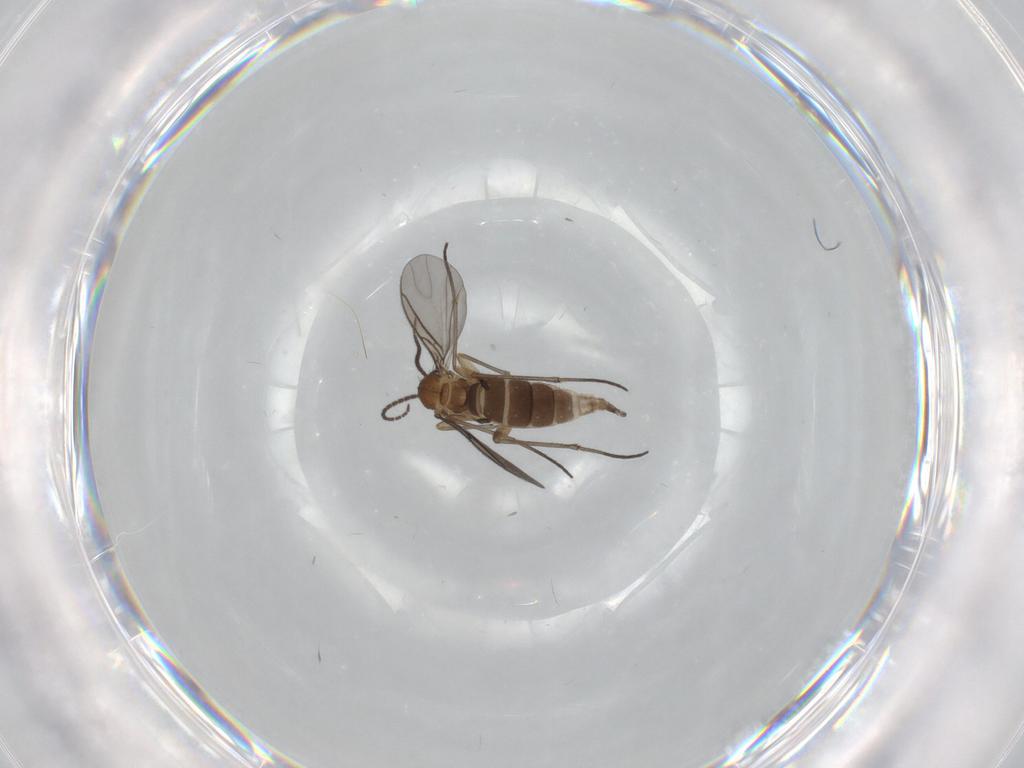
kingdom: Animalia
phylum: Arthropoda
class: Insecta
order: Diptera
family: Sciaridae
